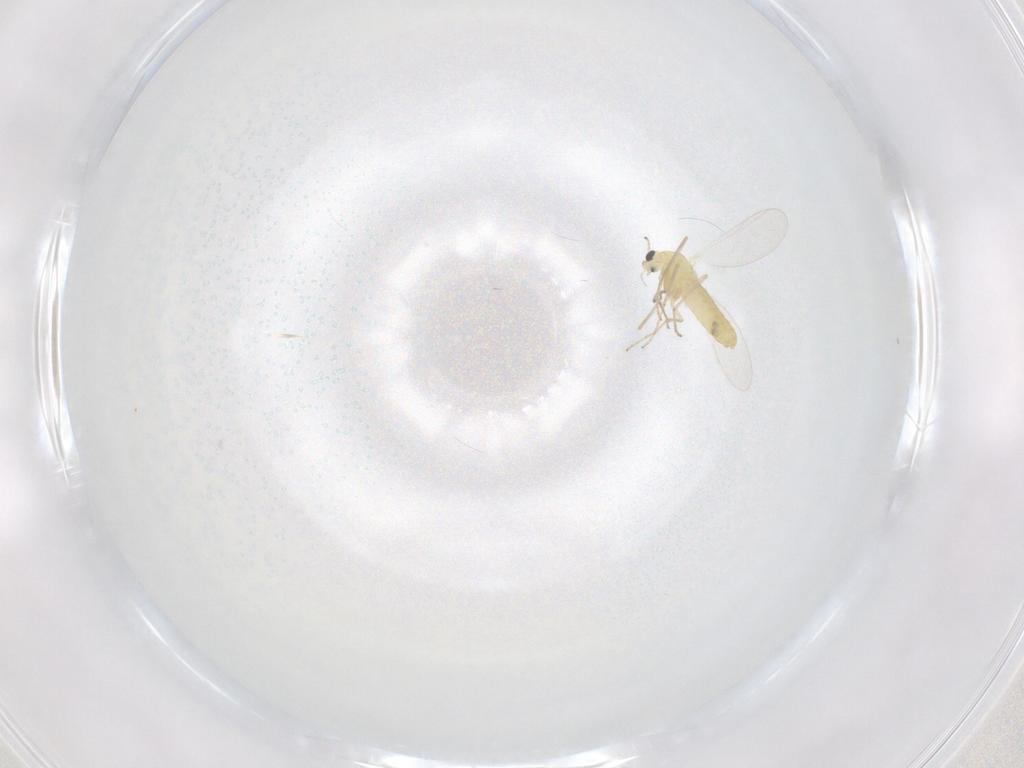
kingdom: Animalia
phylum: Arthropoda
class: Insecta
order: Diptera
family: Chironomidae
